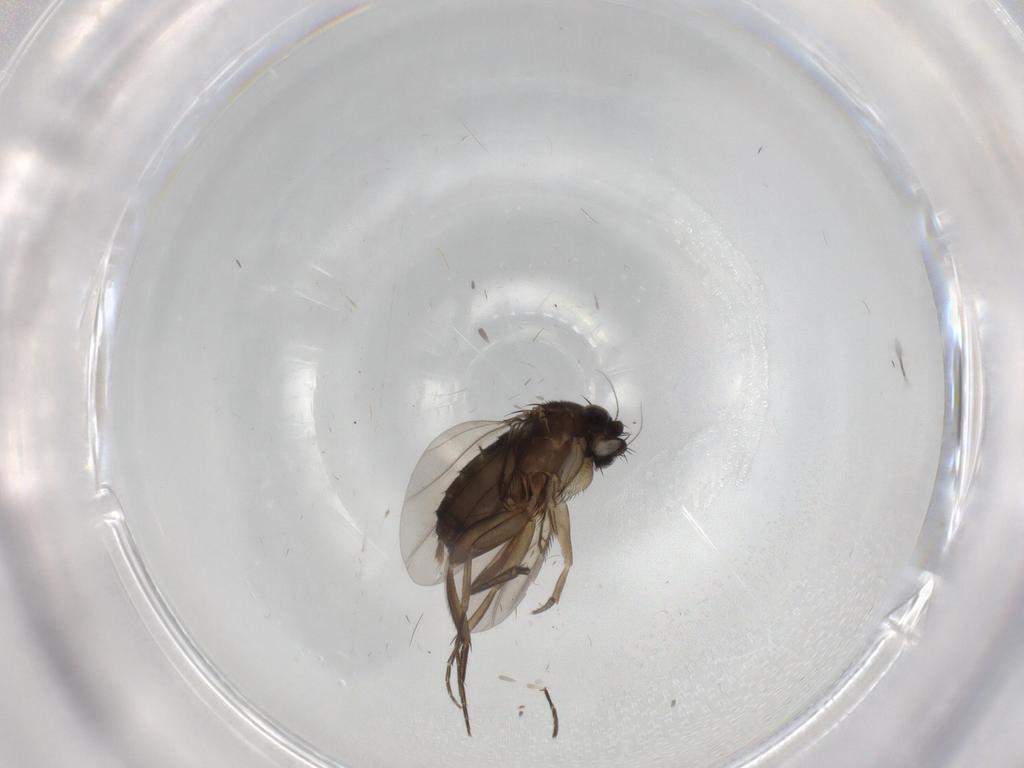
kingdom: Animalia
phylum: Arthropoda
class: Insecta
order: Diptera
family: Phoridae
